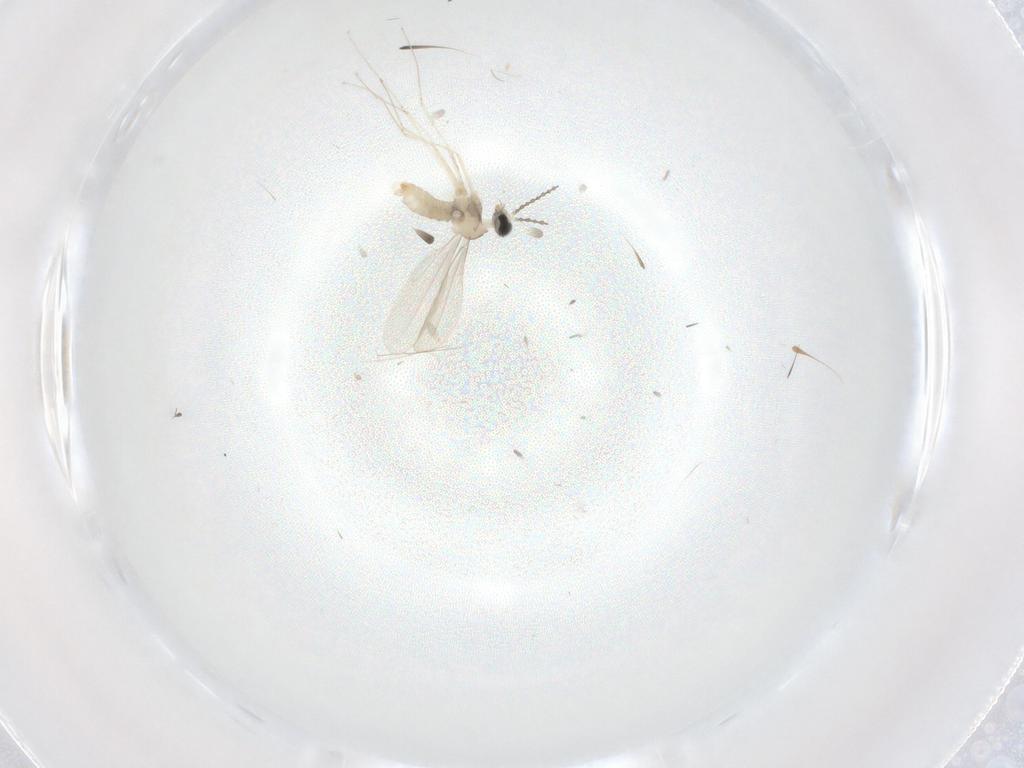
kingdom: Animalia
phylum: Arthropoda
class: Insecta
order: Diptera
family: Cecidomyiidae
